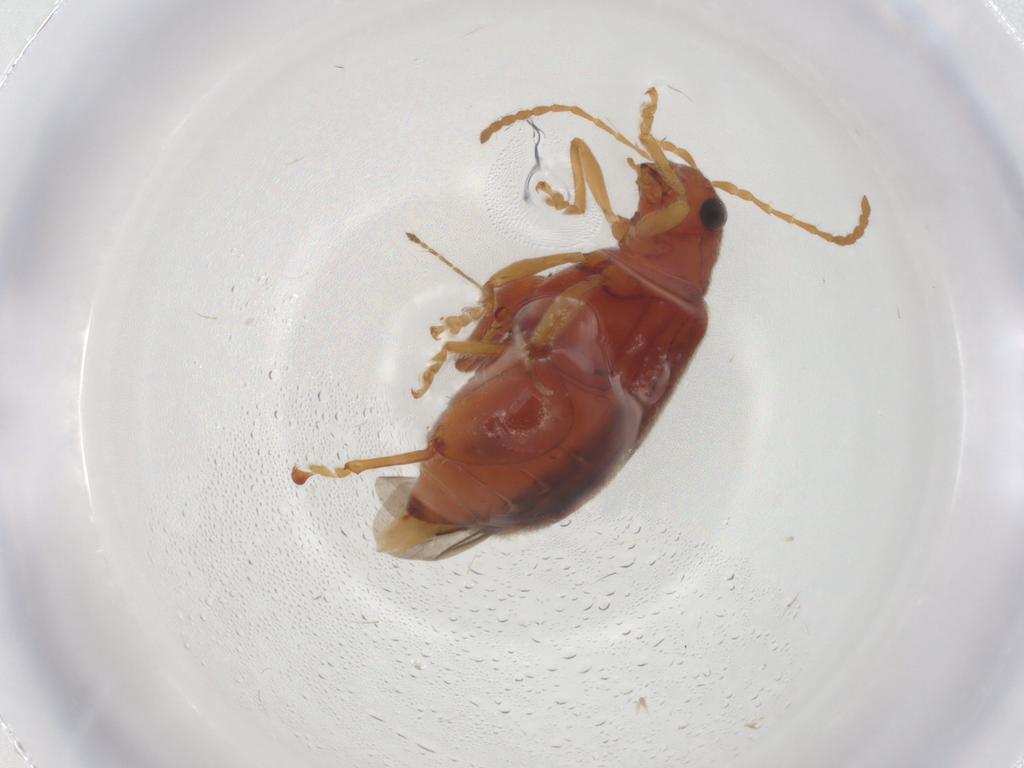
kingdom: Animalia
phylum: Arthropoda
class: Insecta
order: Coleoptera
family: Chrysomelidae
